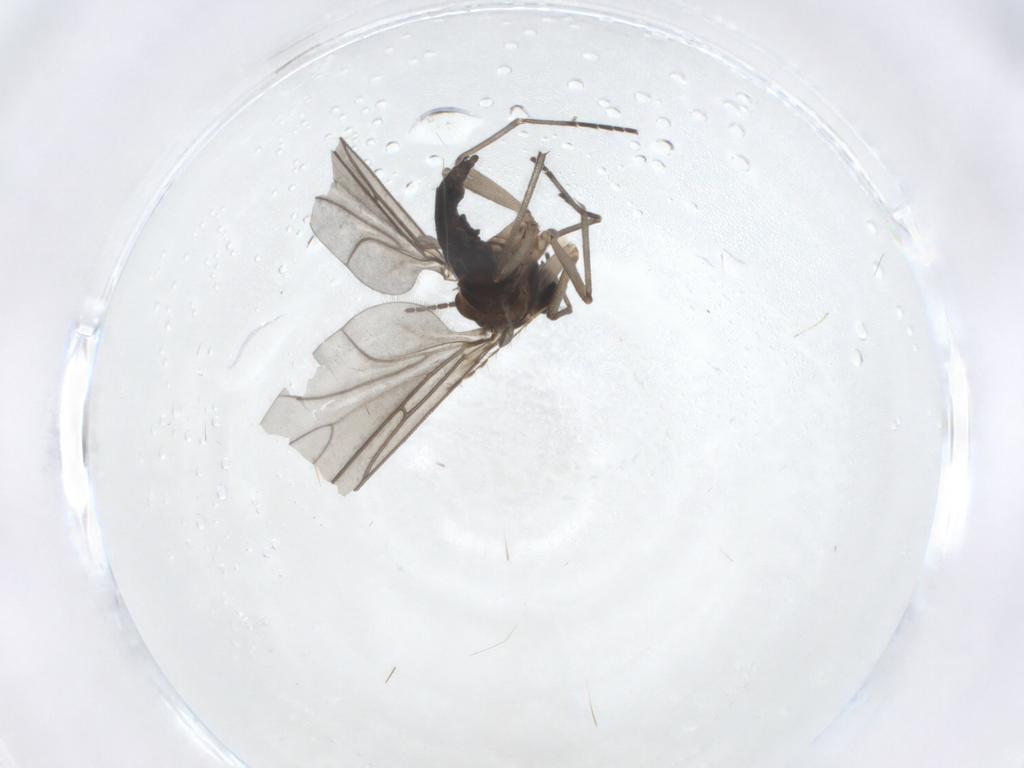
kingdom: Animalia
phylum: Arthropoda
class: Insecta
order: Diptera
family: Sciaridae
